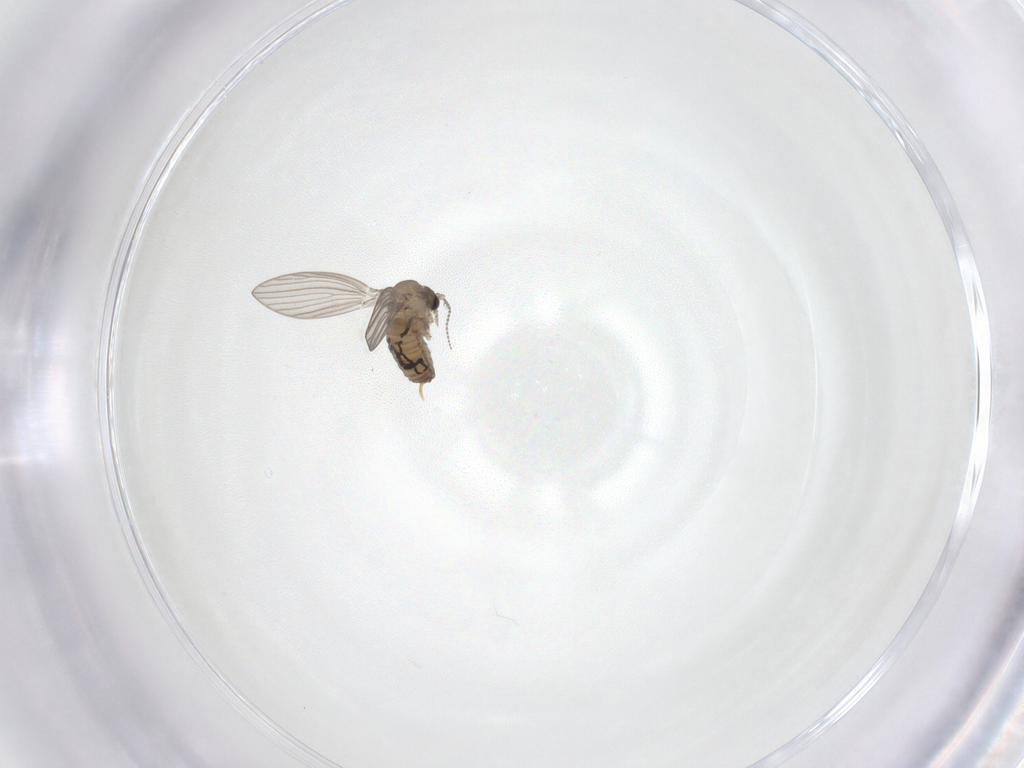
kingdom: Animalia
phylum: Arthropoda
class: Insecta
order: Diptera
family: Psychodidae
